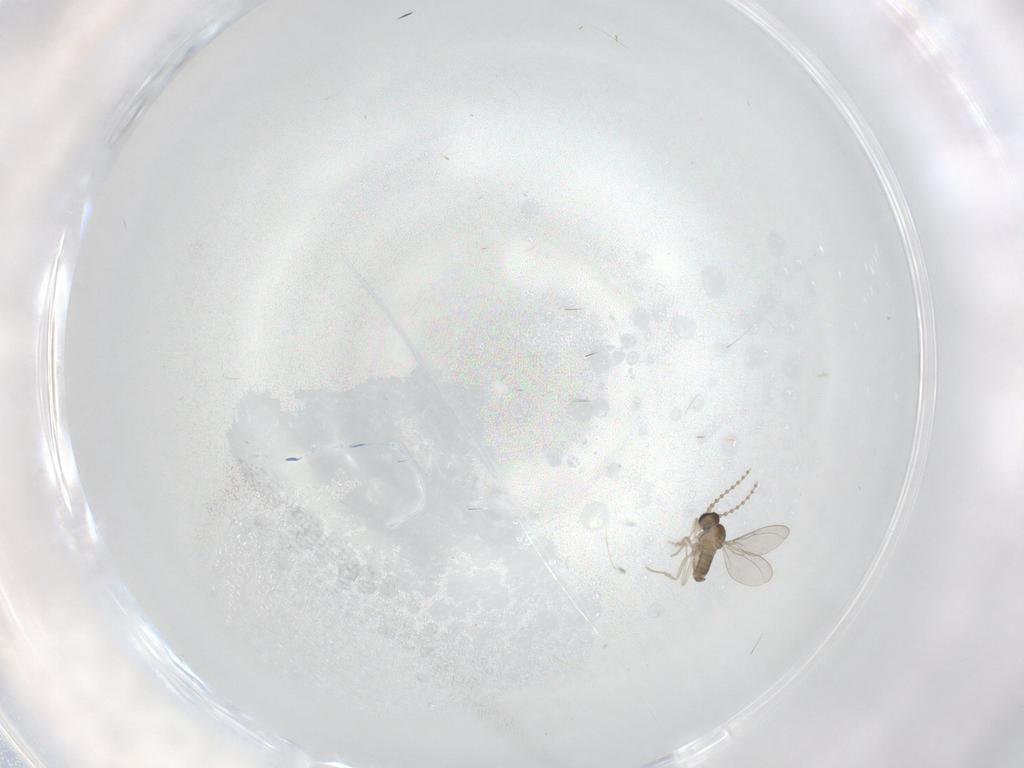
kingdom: Animalia
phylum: Arthropoda
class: Insecta
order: Diptera
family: Cecidomyiidae
